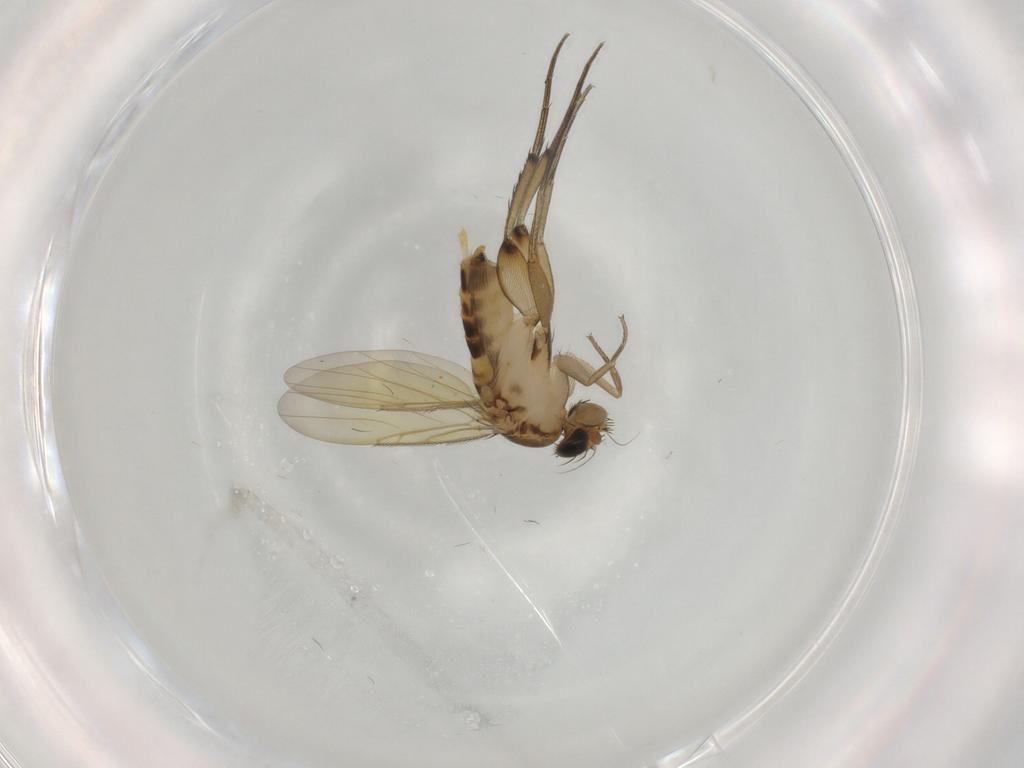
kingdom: Animalia
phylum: Arthropoda
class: Insecta
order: Diptera
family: Phoridae
